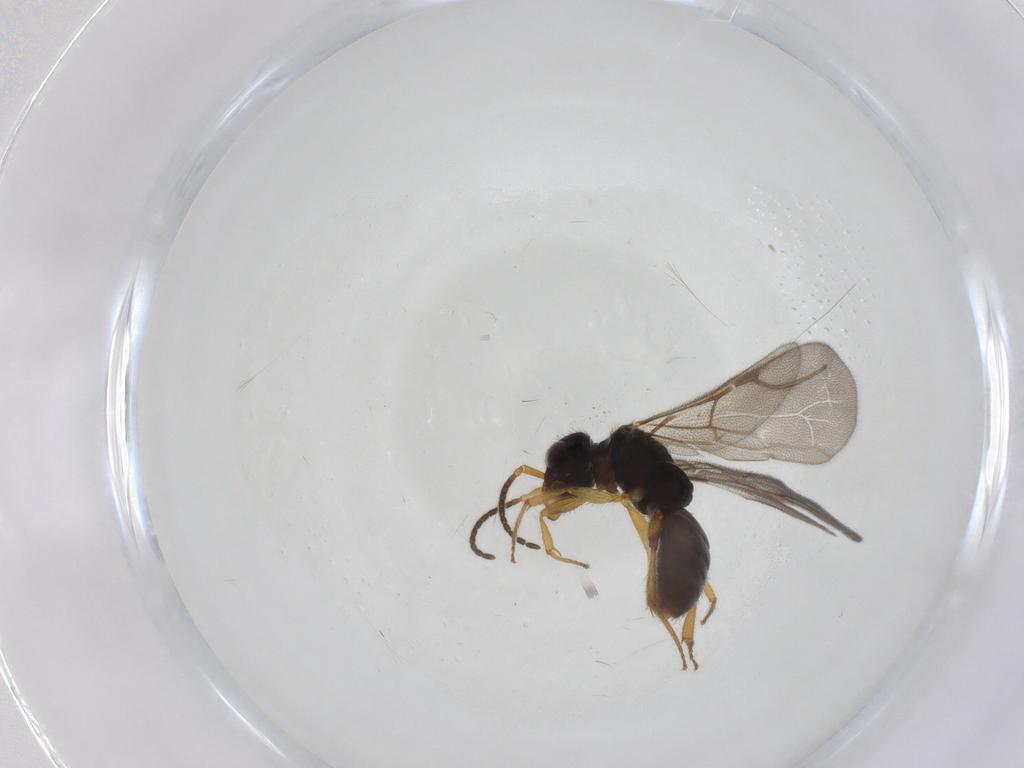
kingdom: Animalia
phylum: Arthropoda
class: Insecta
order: Hymenoptera
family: Bethylidae
